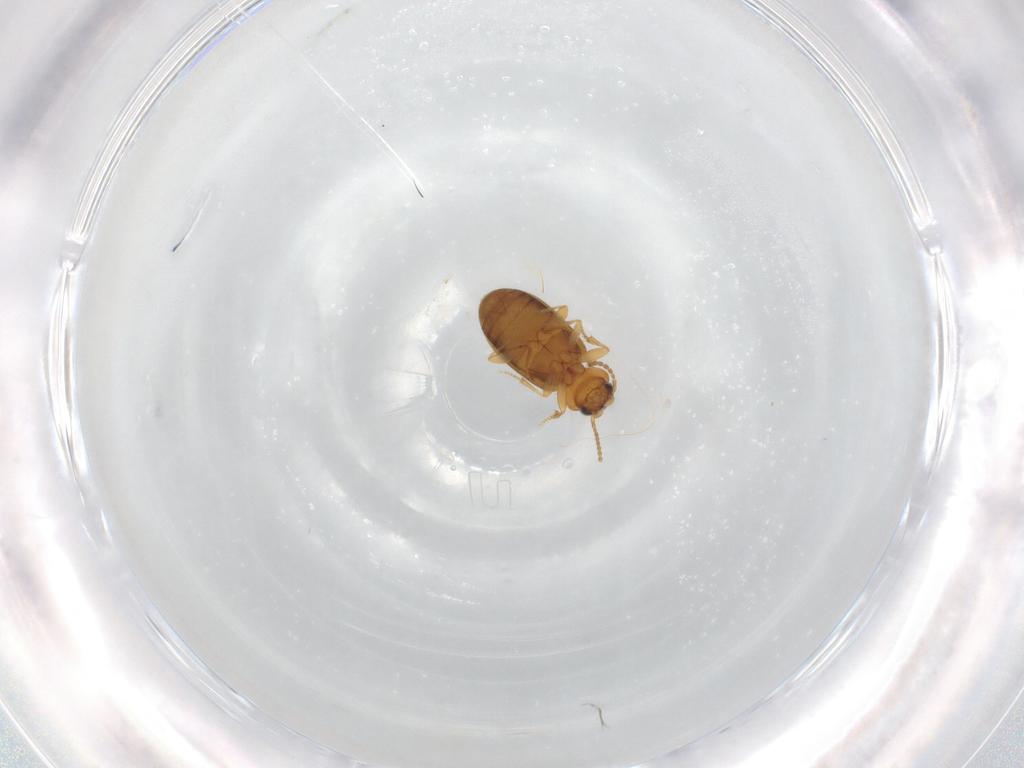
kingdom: Animalia
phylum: Arthropoda
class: Insecta
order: Coleoptera
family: Carabidae
